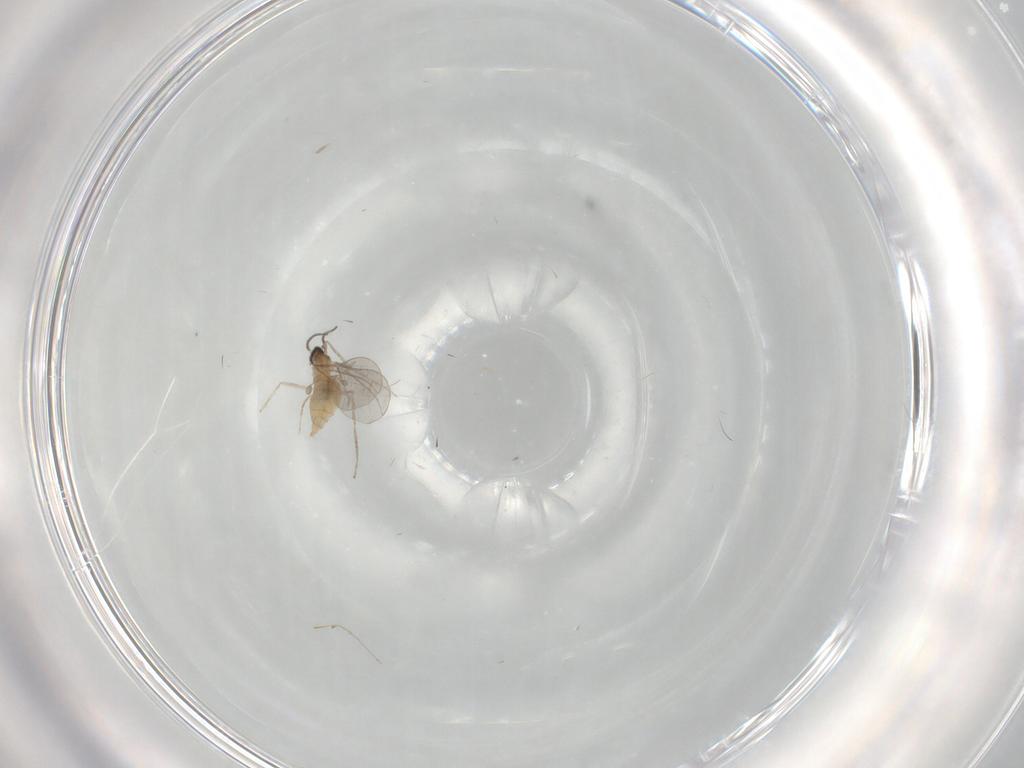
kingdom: Animalia
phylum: Arthropoda
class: Insecta
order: Diptera
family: Cecidomyiidae
